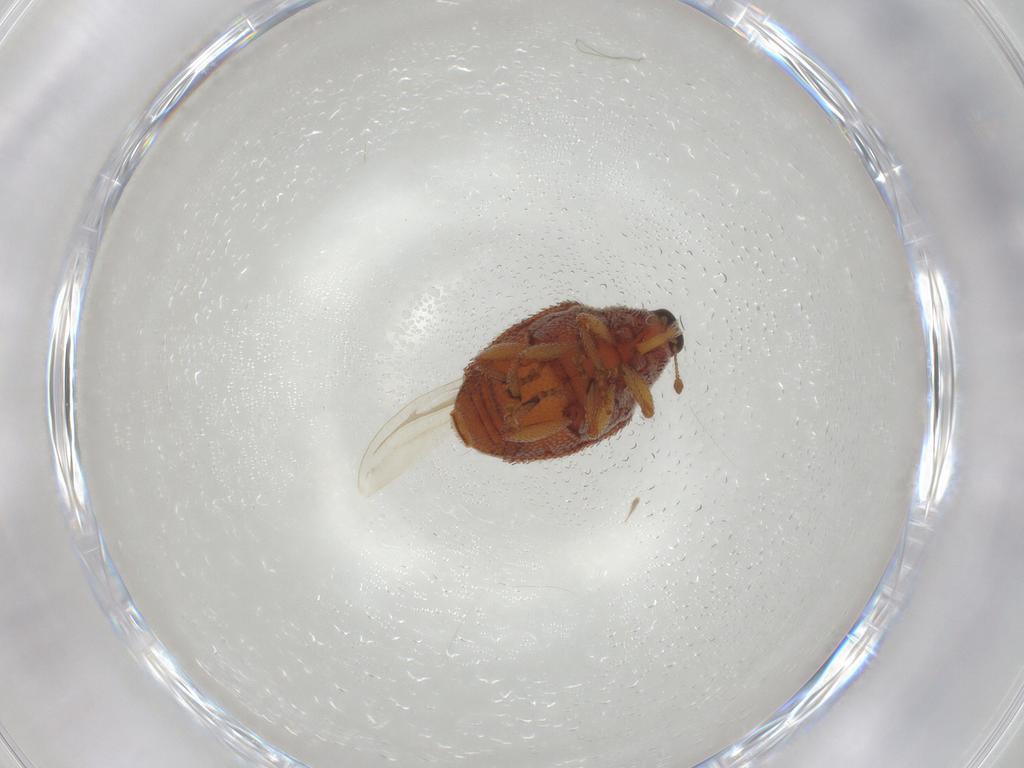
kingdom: Animalia
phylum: Arthropoda
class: Insecta
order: Coleoptera
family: Curculionidae
